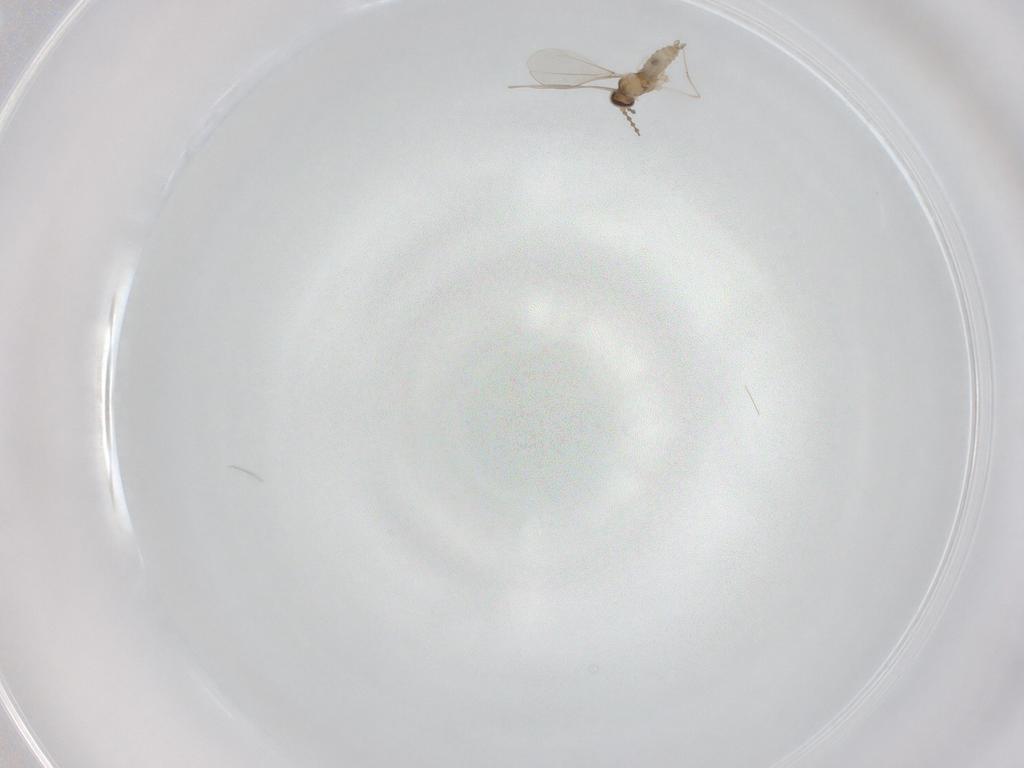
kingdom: Animalia
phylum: Arthropoda
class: Insecta
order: Diptera
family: Cecidomyiidae
